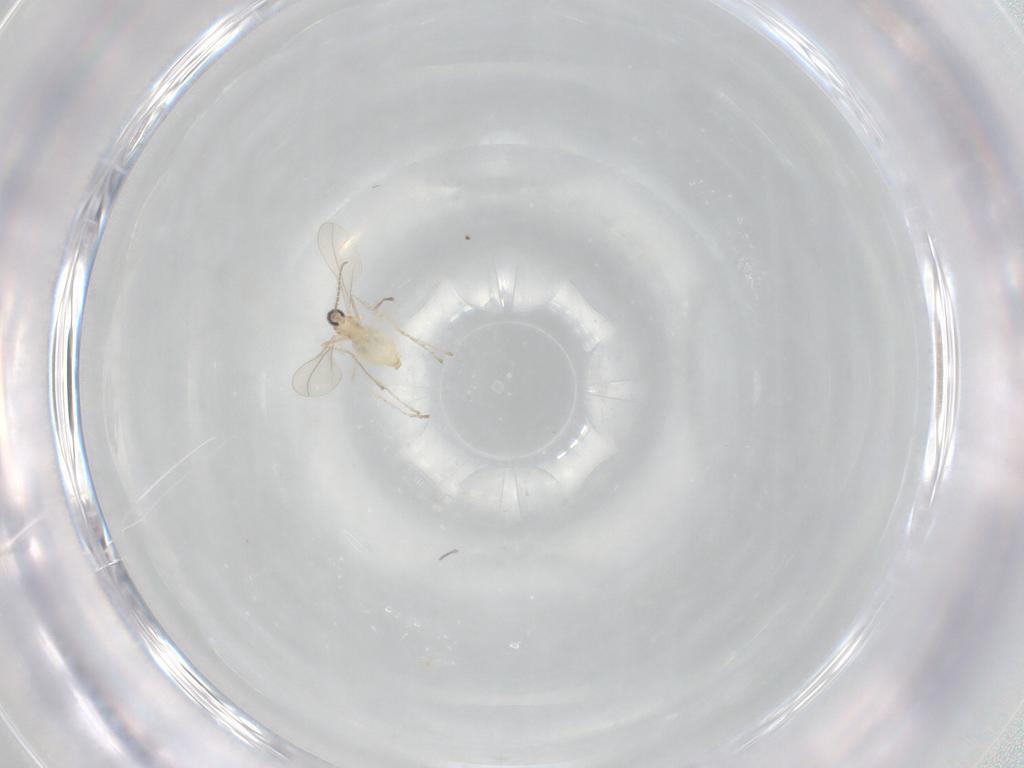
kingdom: Animalia
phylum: Arthropoda
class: Insecta
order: Diptera
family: Cecidomyiidae
